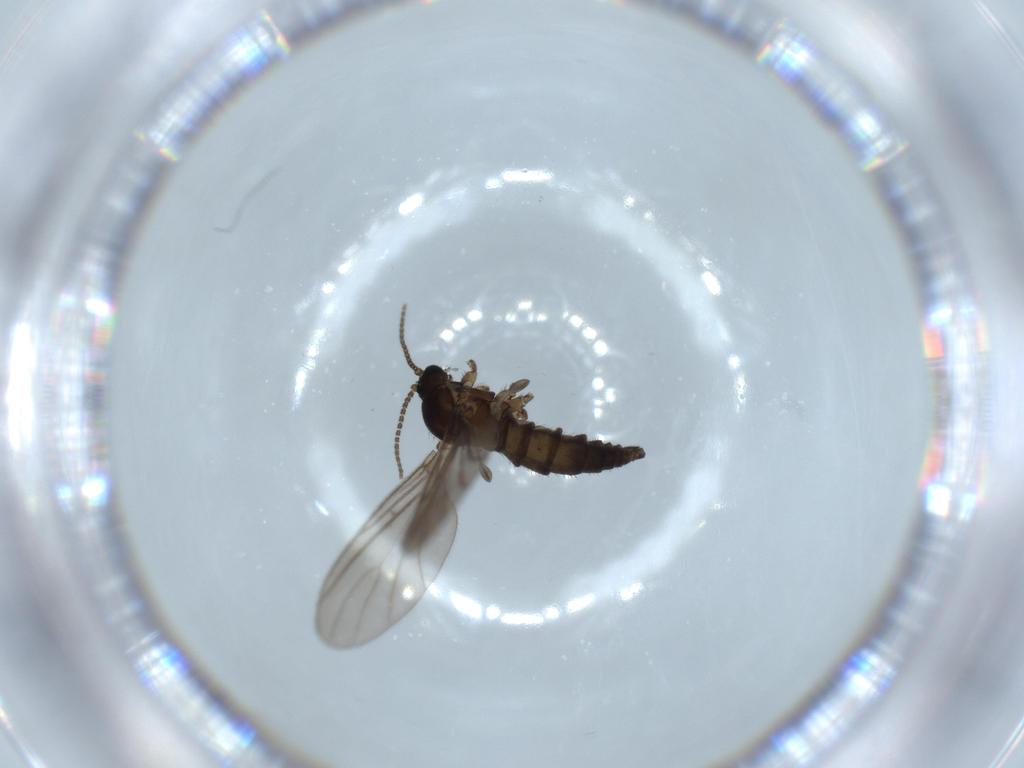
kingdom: Animalia
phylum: Arthropoda
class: Insecta
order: Diptera
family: Sciaridae
